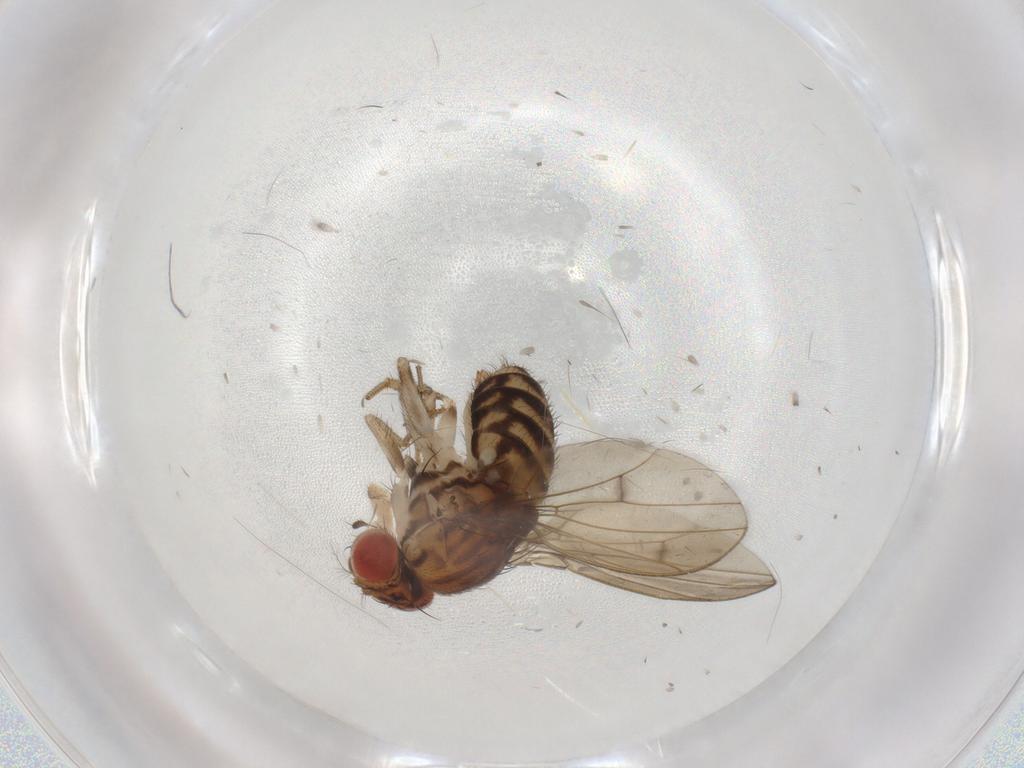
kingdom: Animalia
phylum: Arthropoda
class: Insecta
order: Diptera
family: Drosophilidae
